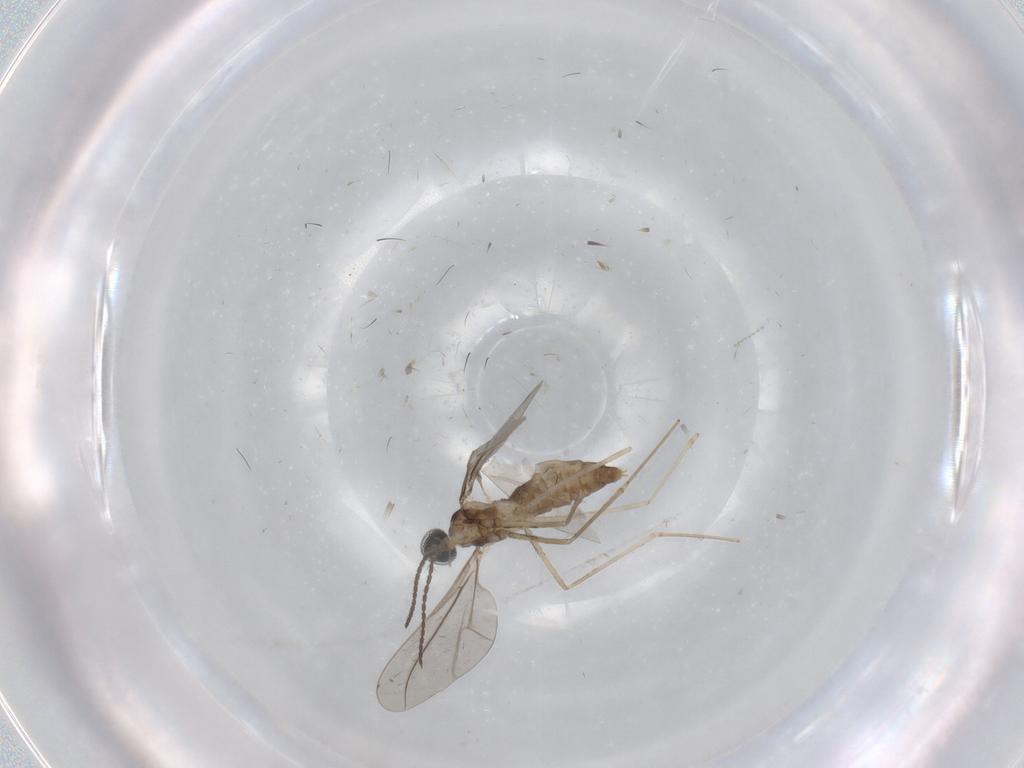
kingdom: Animalia
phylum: Arthropoda
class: Insecta
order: Diptera
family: Cecidomyiidae
